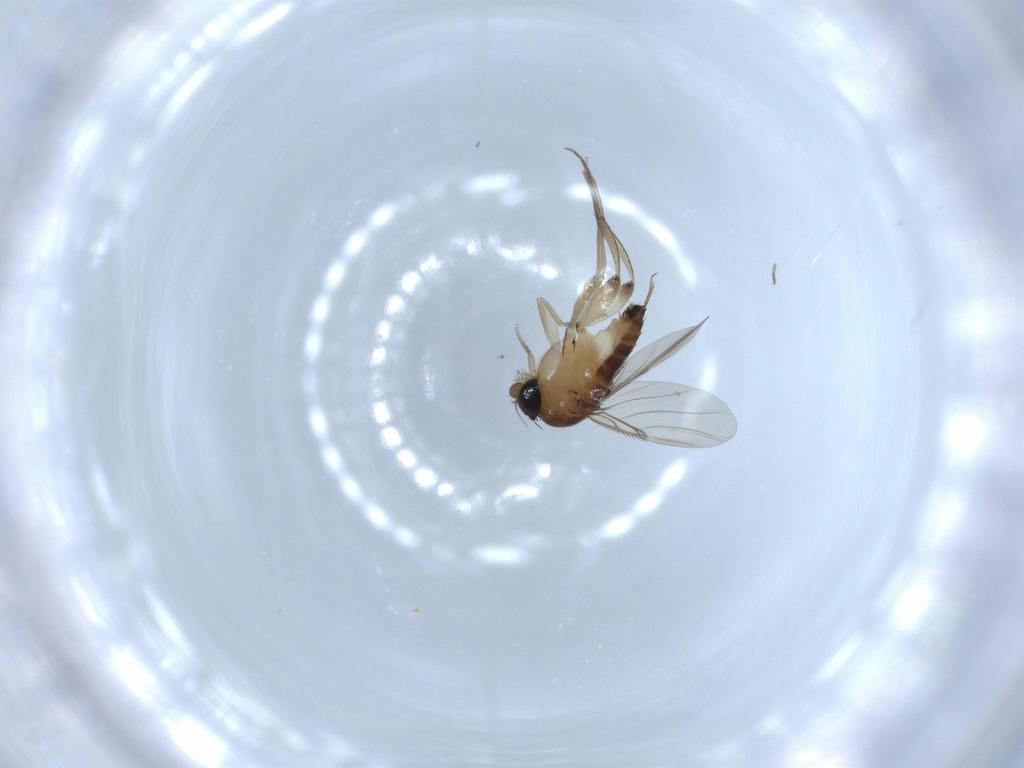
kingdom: Animalia
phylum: Arthropoda
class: Insecta
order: Diptera
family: Phoridae
